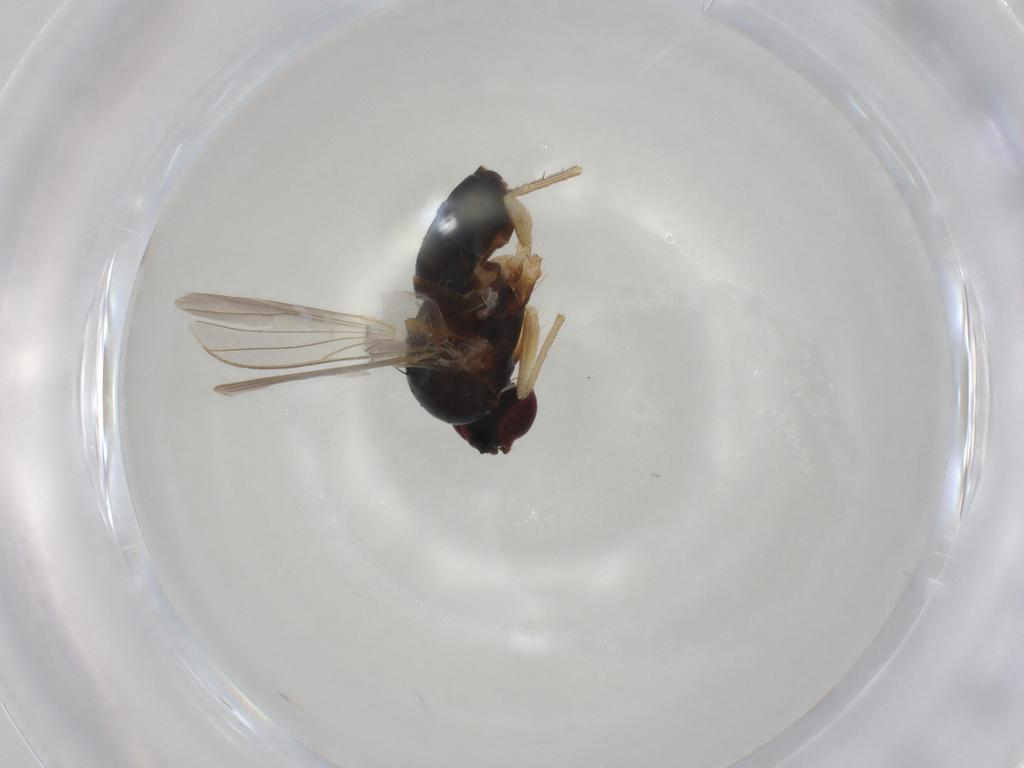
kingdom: Animalia
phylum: Arthropoda
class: Insecta
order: Diptera
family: Dolichopodidae
